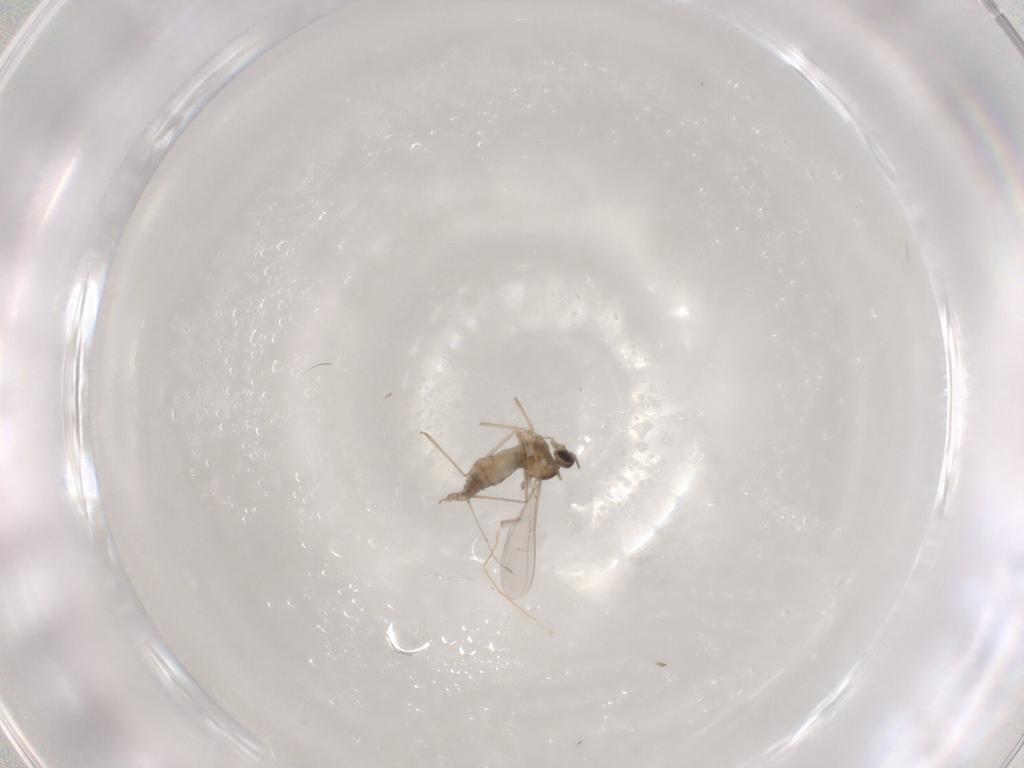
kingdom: Animalia
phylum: Arthropoda
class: Insecta
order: Diptera
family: Cecidomyiidae
